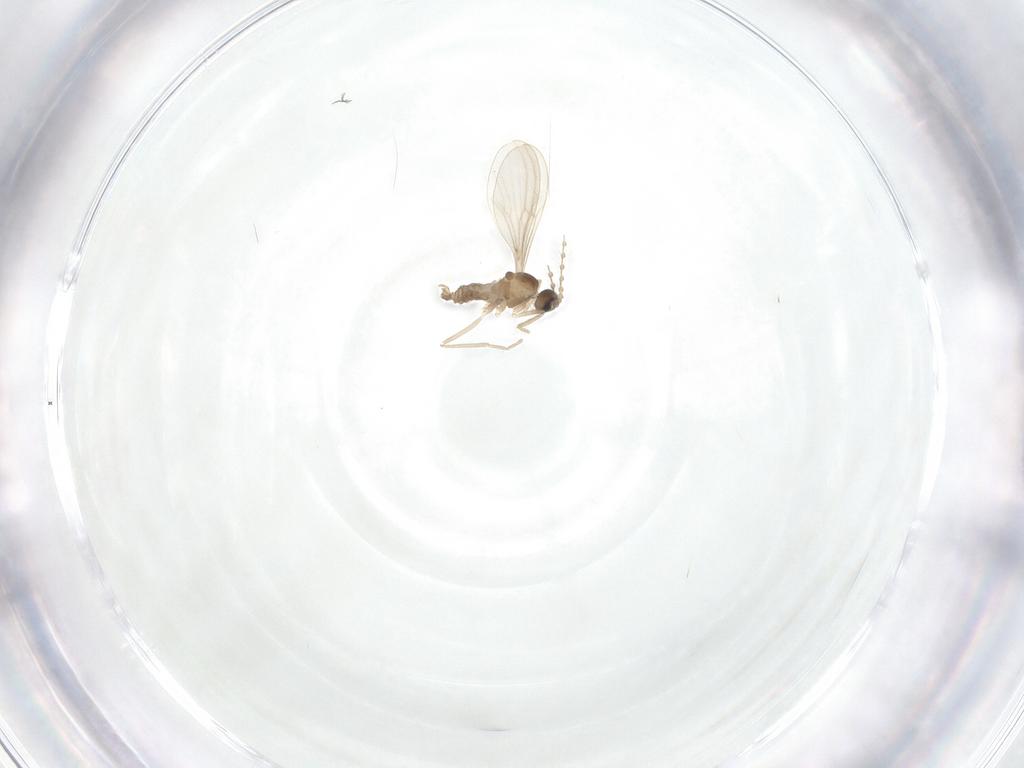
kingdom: Animalia
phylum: Arthropoda
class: Insecta
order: Diptera
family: Cecidomyiidae
